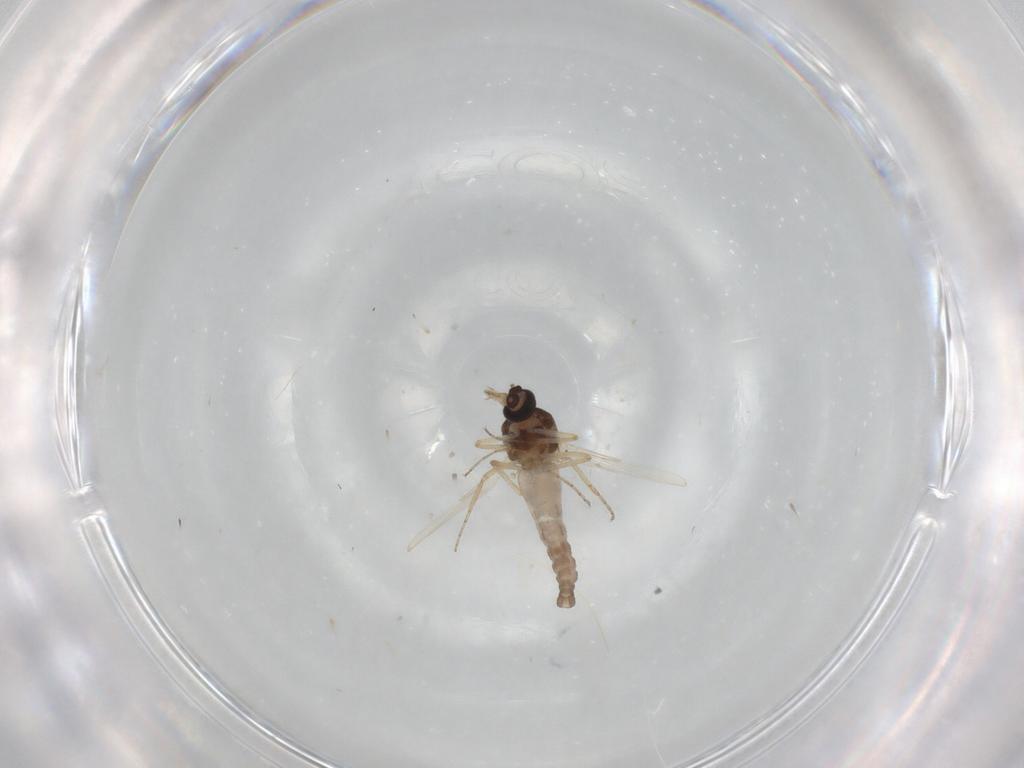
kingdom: Animalia
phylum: Arthropoda
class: Insecta
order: Diptera
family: Ceratopogonidae
